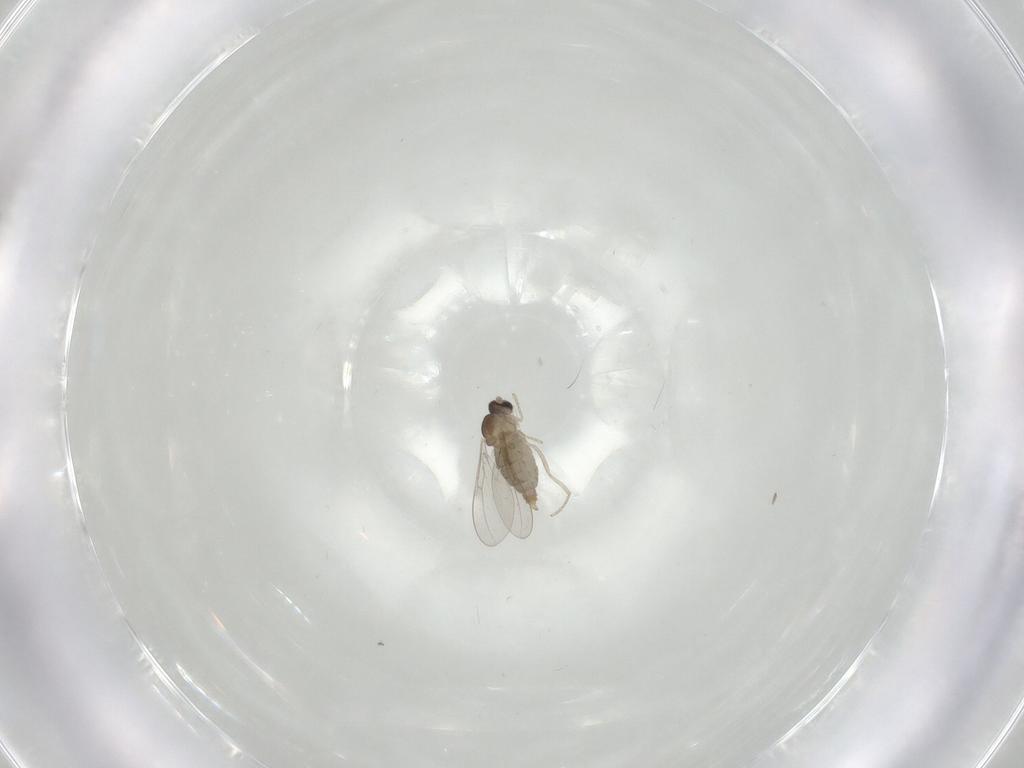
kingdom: Animalia
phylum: Arthropoda
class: Insecta
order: Diptera
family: Cecidomyiidae
